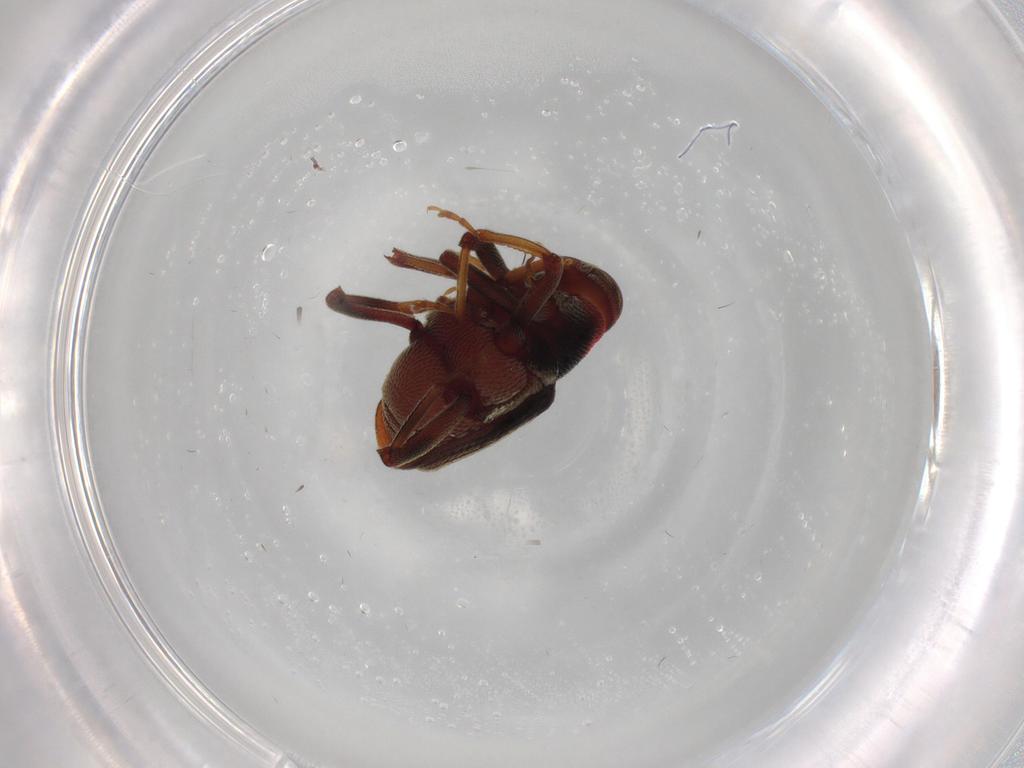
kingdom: Animalia
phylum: Arthropoda
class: Insecta
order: Coleoptera
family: Curculionidae
